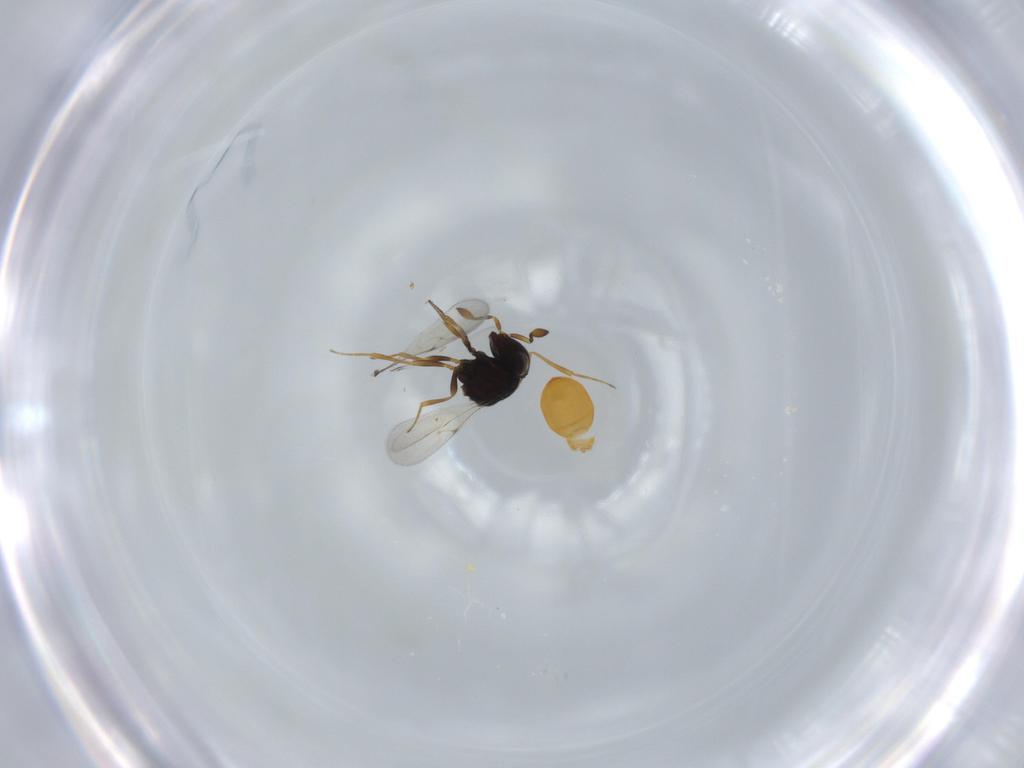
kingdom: Animalia
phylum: Arthropoda
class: Insecta
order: Hymenoptera
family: Scelionidae
